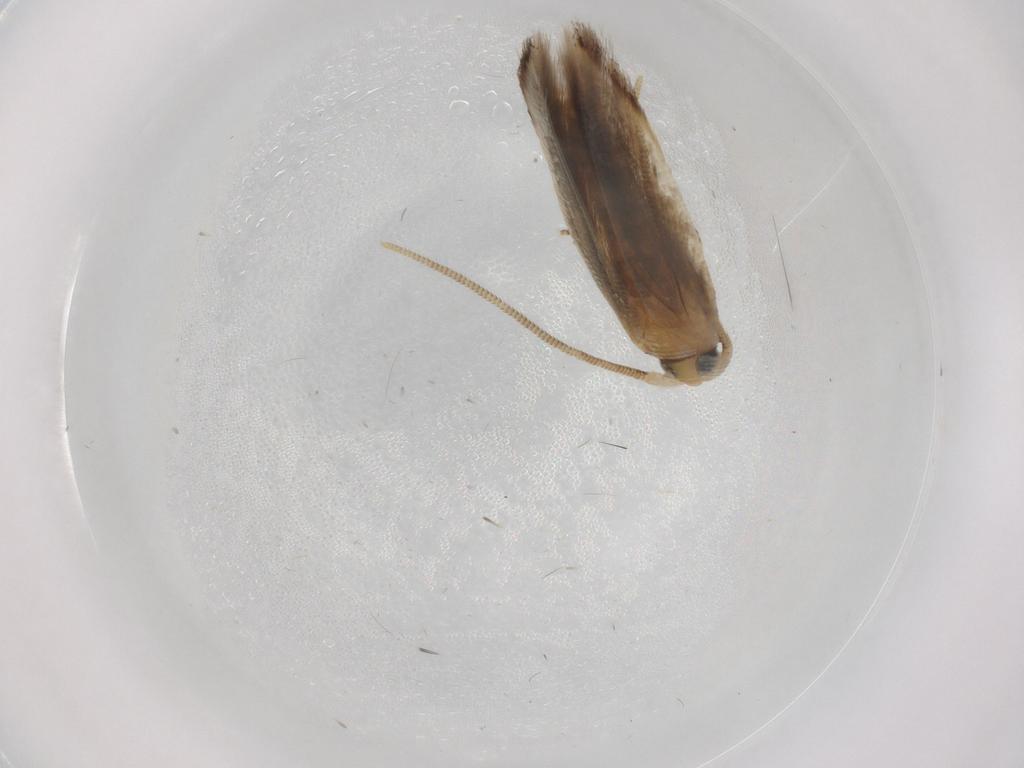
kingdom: Animalia
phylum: Arthropoda
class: Insecta
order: Lepidoptera
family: Opostegidae
